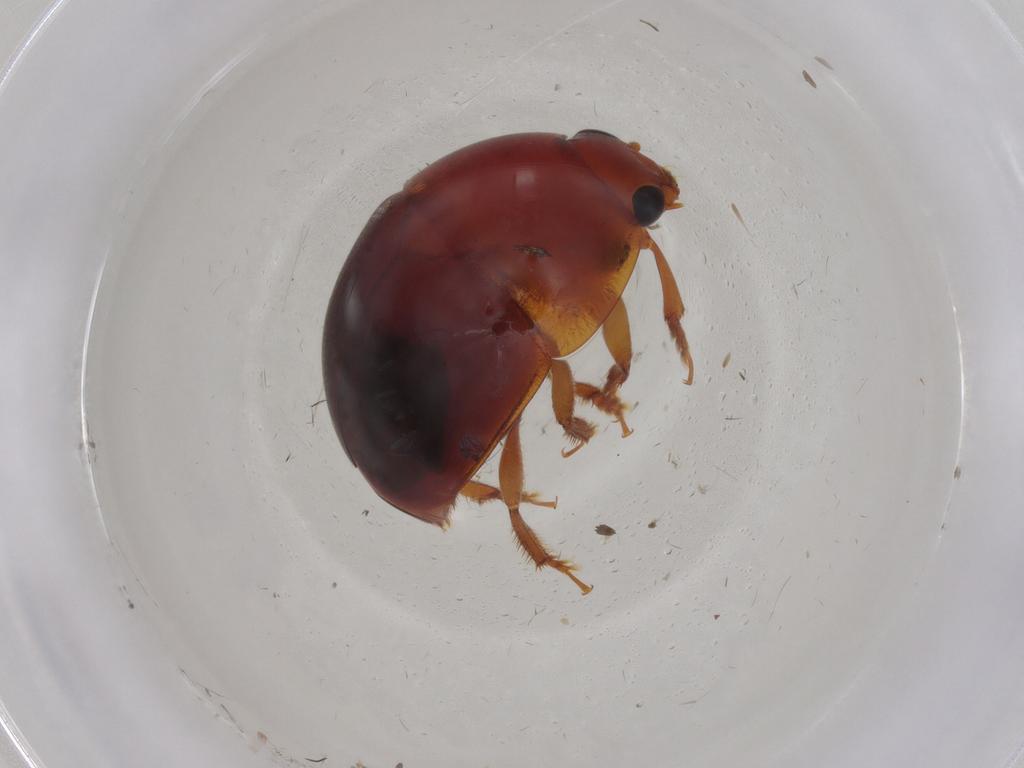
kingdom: Animalia
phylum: Arthropoda
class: Insecta
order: Coleoptera
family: Nitidulidae
